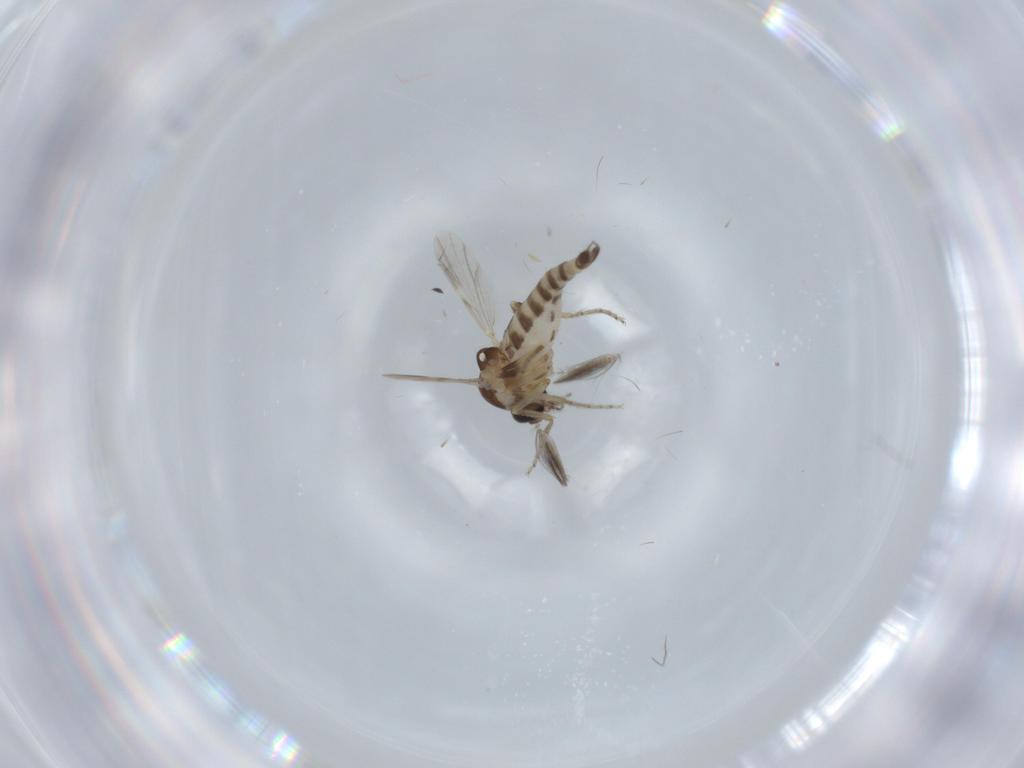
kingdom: Animalia
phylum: Arthropoda
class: Insecta
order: Diptera
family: Ceratopogonidae
